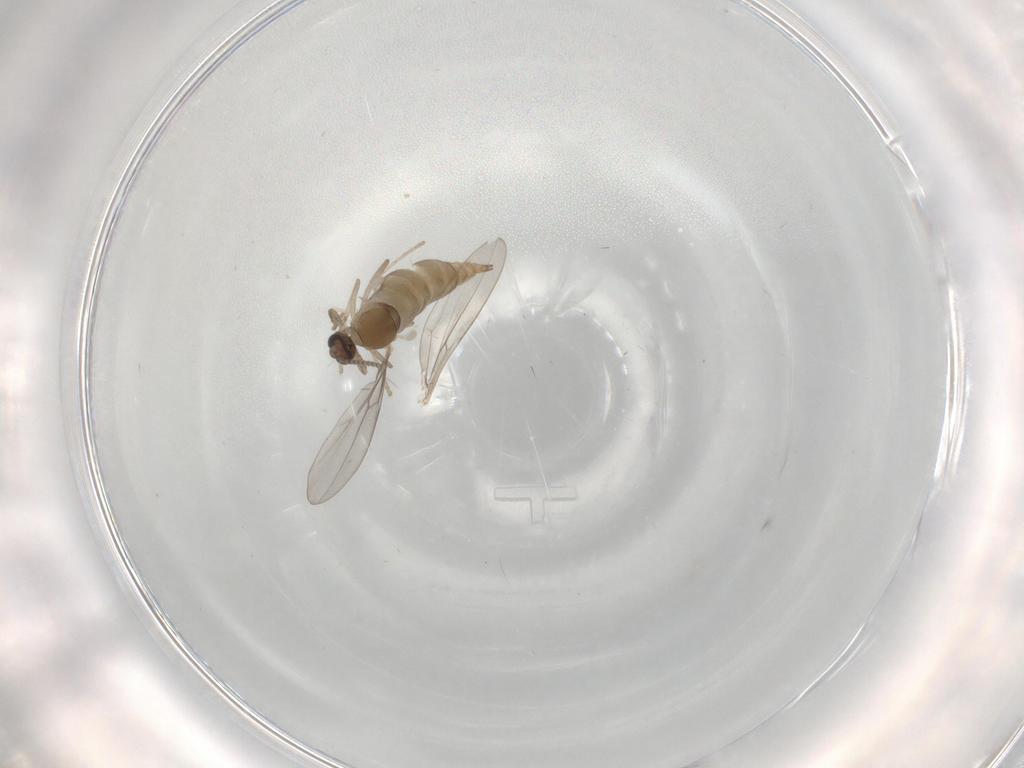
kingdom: Animalia
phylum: Arthropoda
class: Insecta
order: Diptera
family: Cecidomyiidae
